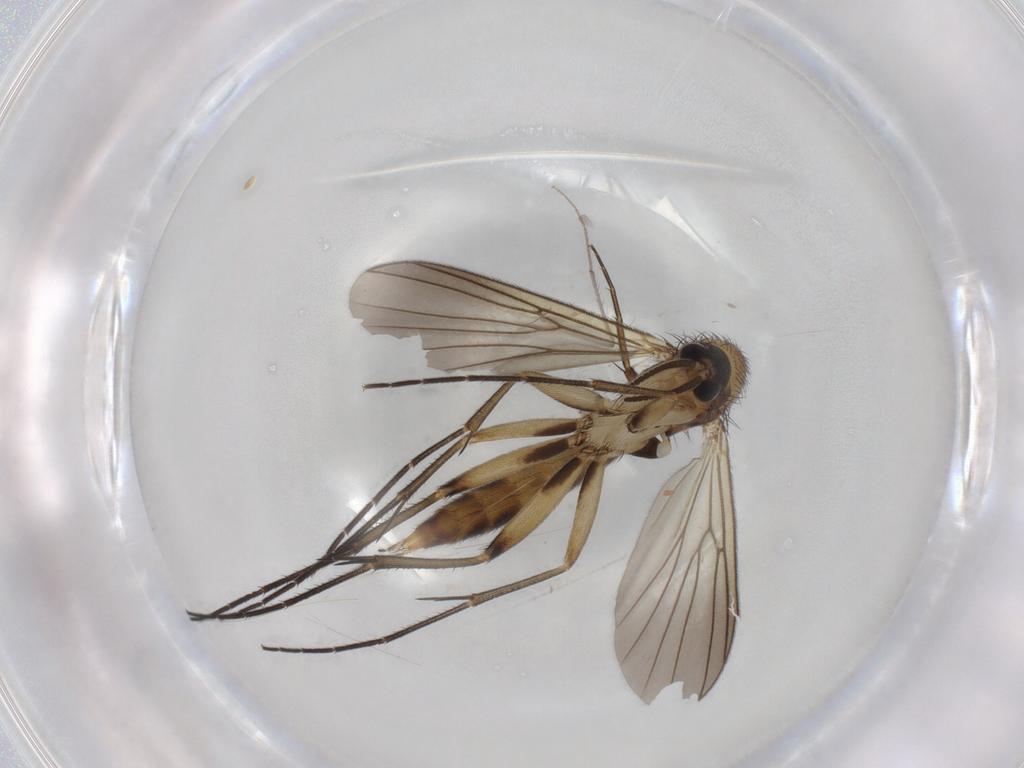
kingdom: Animalia
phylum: Arthropoda
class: Insecta
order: Diptera
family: Mycetophilidae
